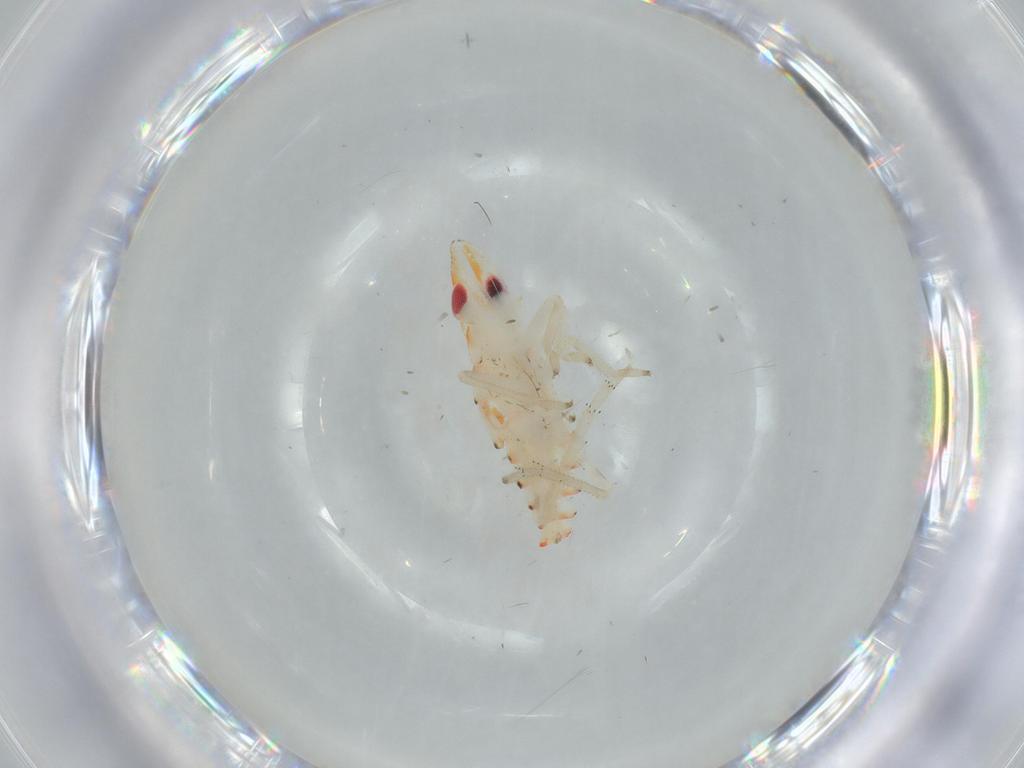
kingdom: Animalia
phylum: Arthropoda
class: Insecta
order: Hemiptera
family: Tropiduchidae
